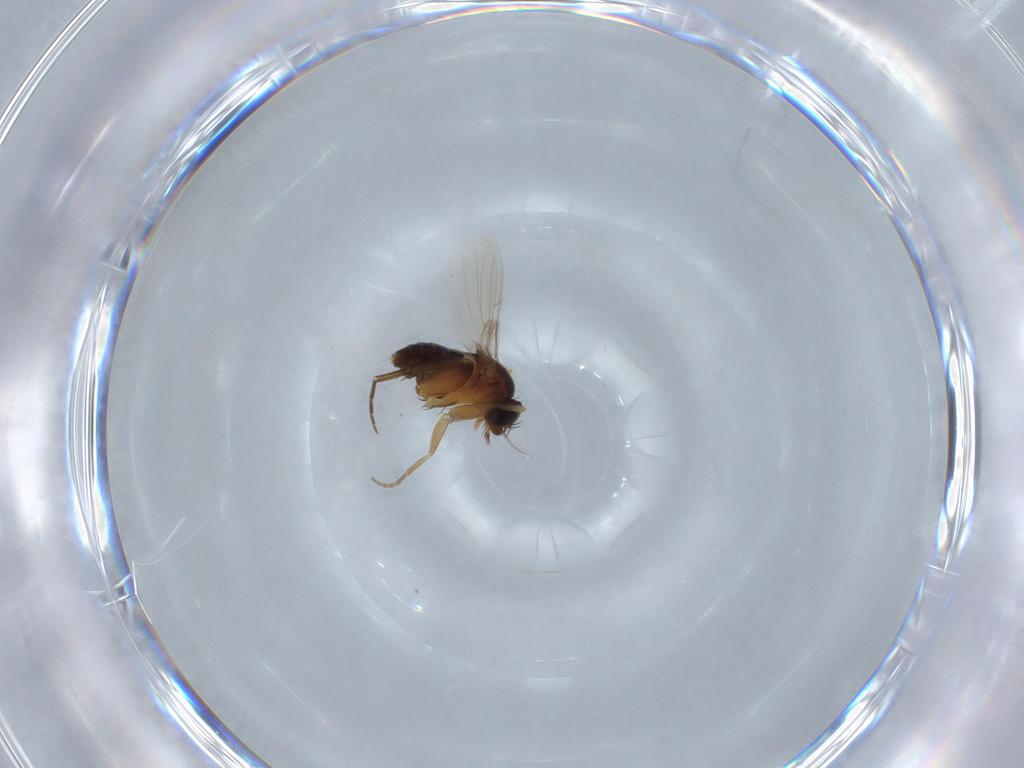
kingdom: Animalia
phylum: Arthropoda
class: Insecta
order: Diptera
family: Phoridae
